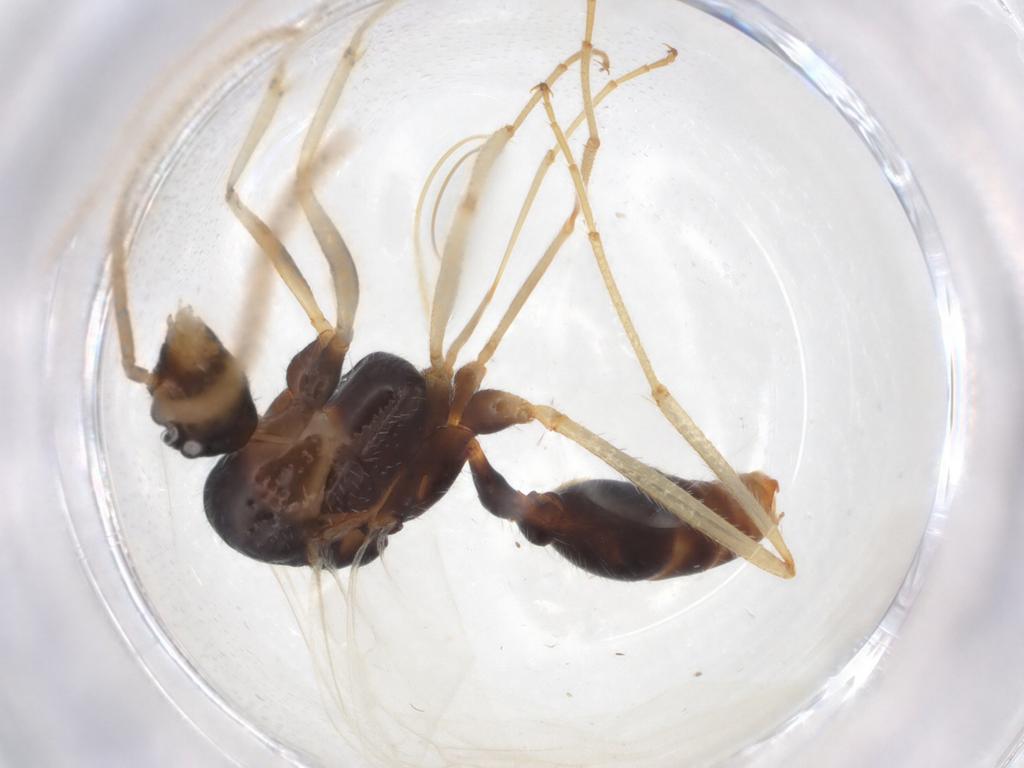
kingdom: Animalia
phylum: Arthropoda
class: Insecta
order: Hymenoptera
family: Formicidae
